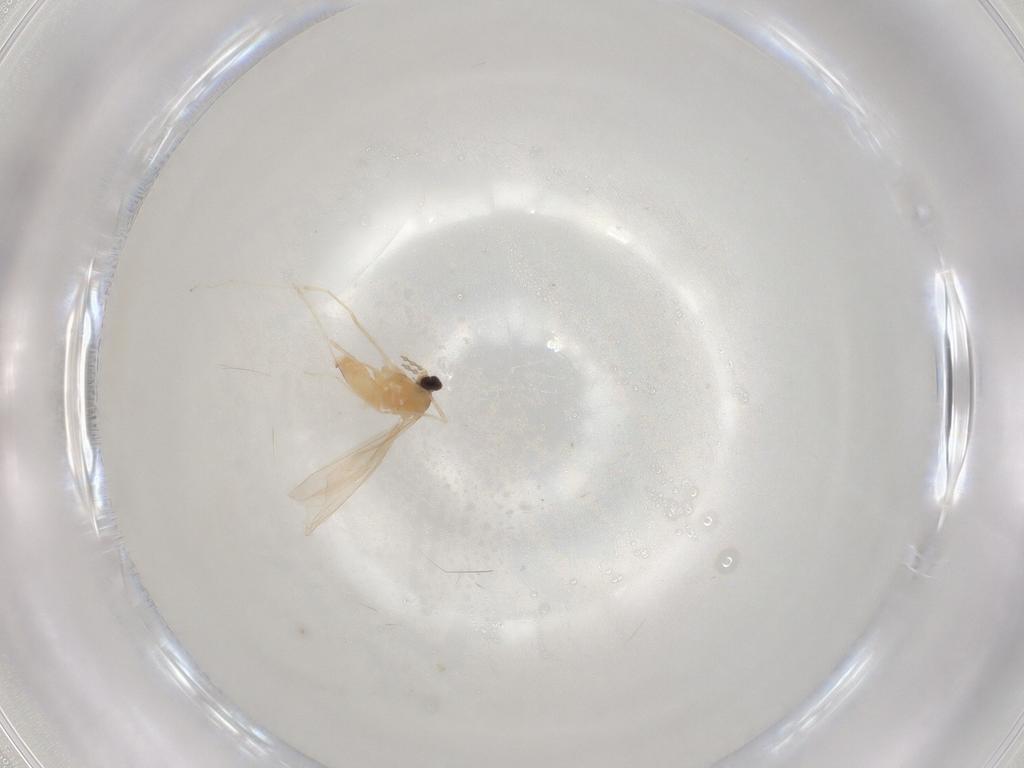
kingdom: Animalia
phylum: Arthropoda
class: Insecta
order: Diptera
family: Cecidomyiidae
